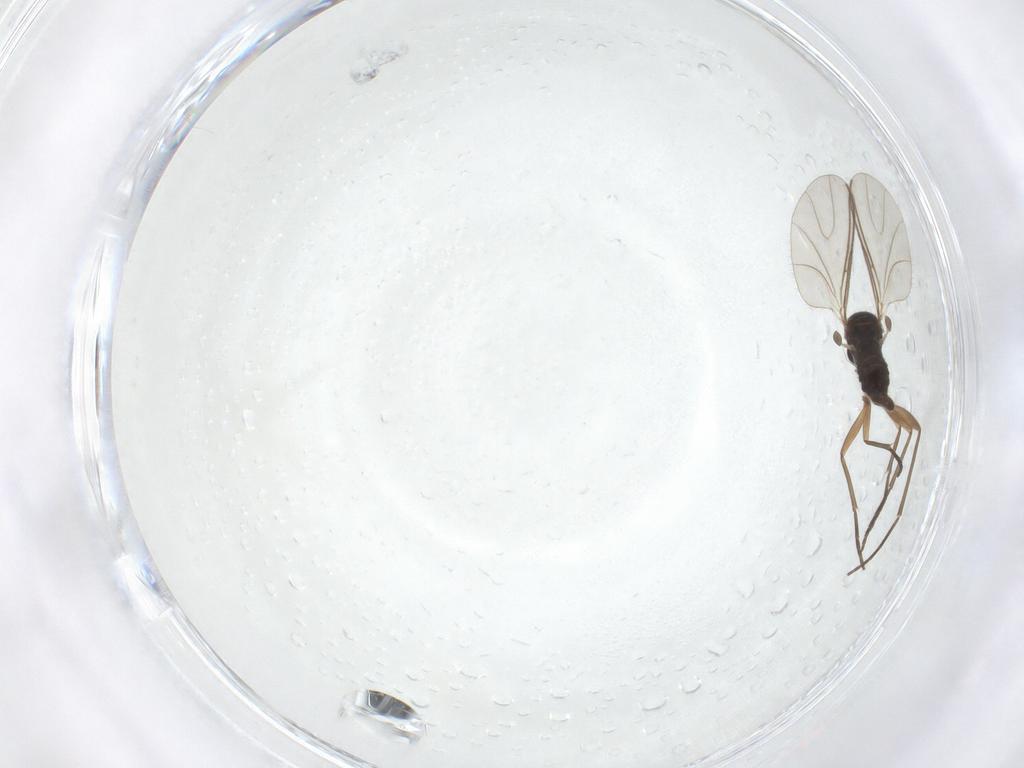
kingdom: Animalia
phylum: Arthropoda
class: Insecta
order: Diptera
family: Sciaridae
